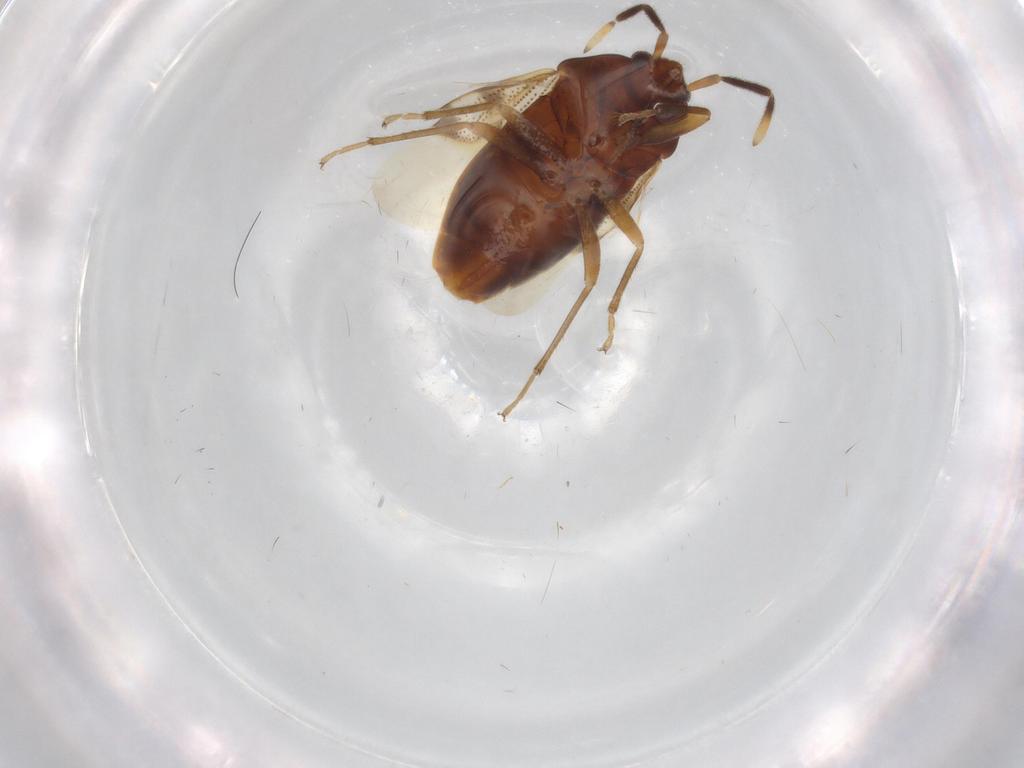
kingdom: Animalia
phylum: Arthropoda
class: Insecta
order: Hemiptera
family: Rhyparochromidae
